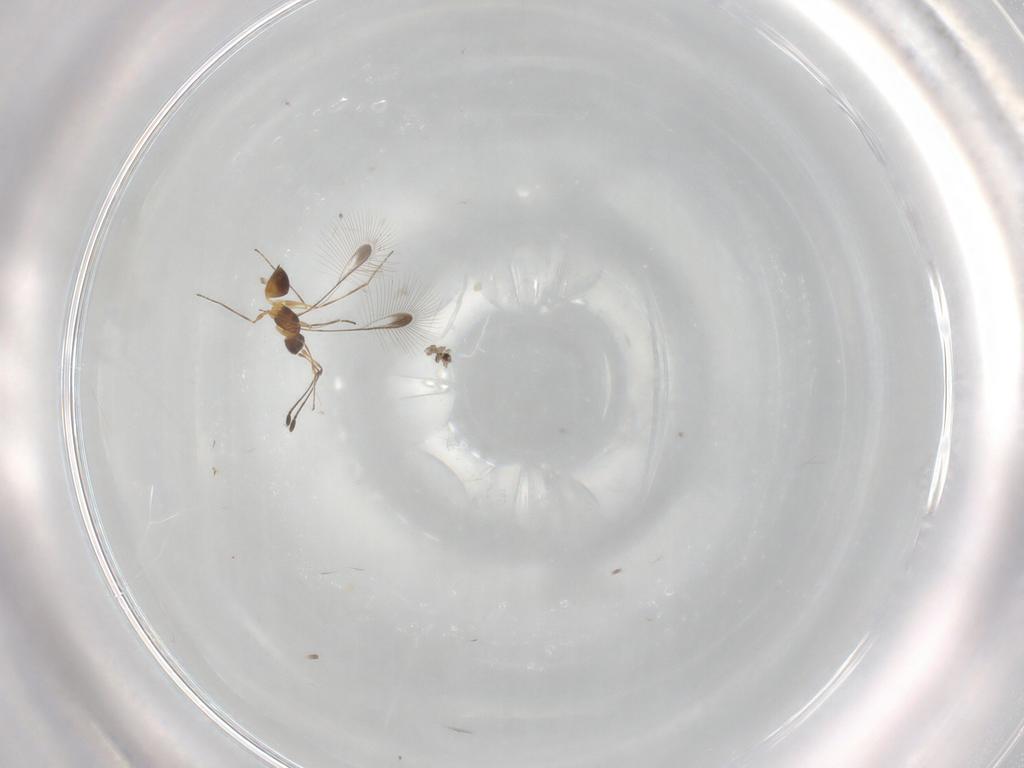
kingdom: Animalia
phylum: Arthropoda
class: Insecta
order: Hymenoptera
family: Mymaridae
